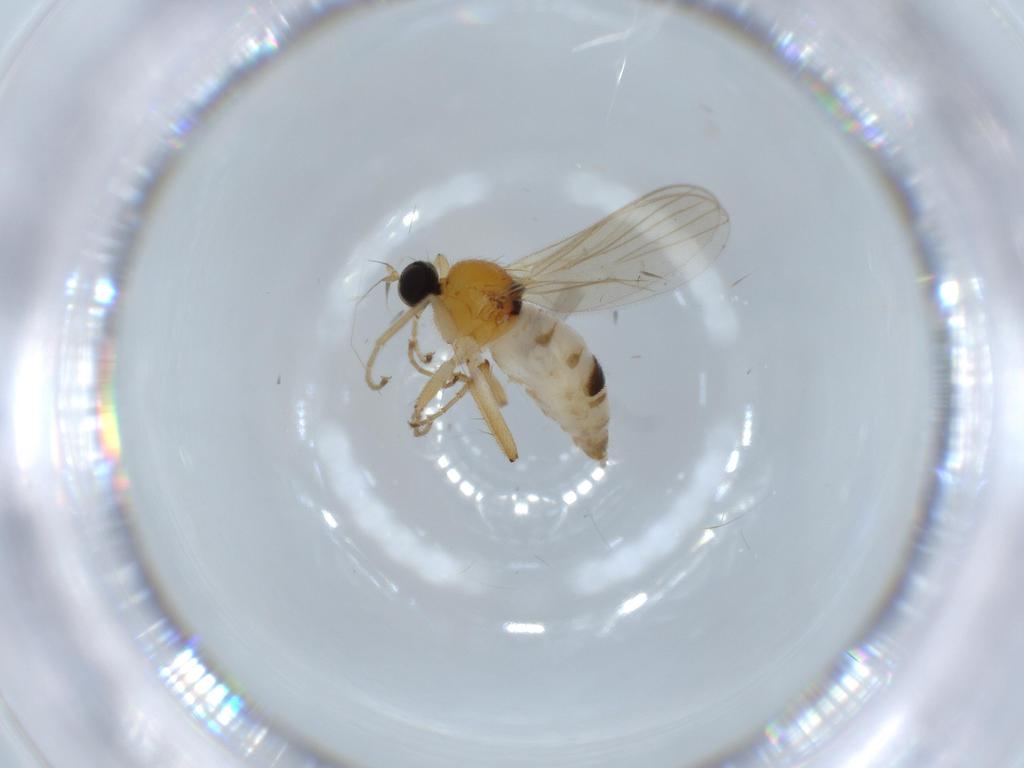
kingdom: Animalia
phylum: Arthropoda
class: Insecta
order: Diptera
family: Hybotidae
